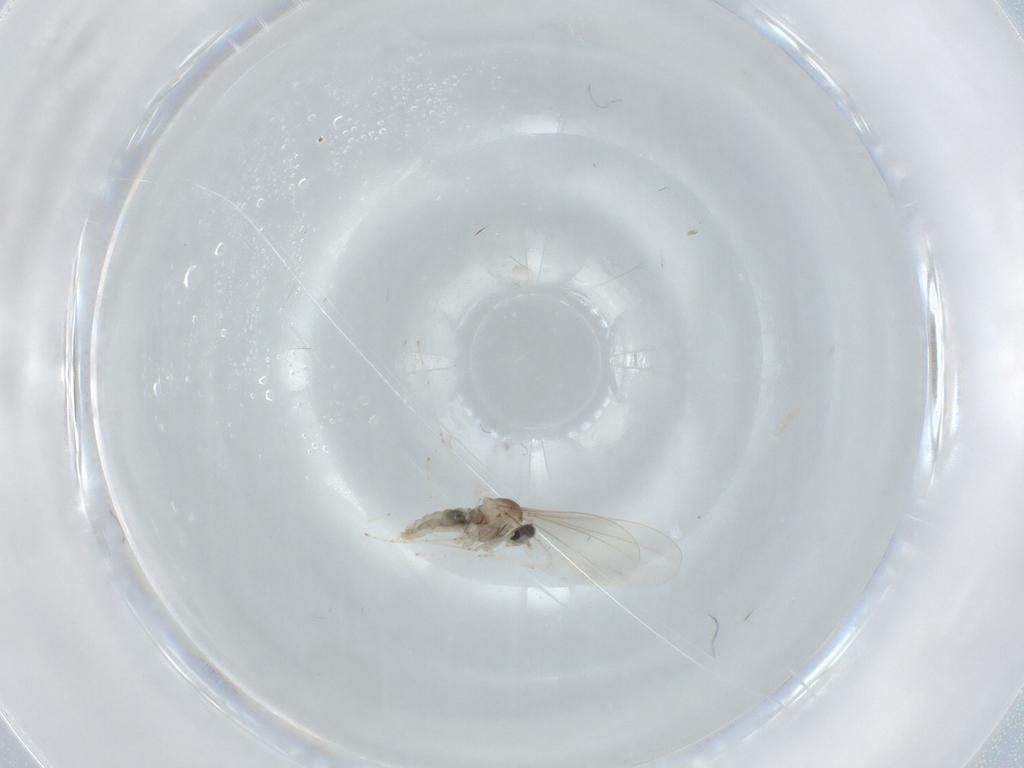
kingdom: Animalia
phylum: Arthropoda
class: Insecta
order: Diptera
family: Cecidomyiidae
